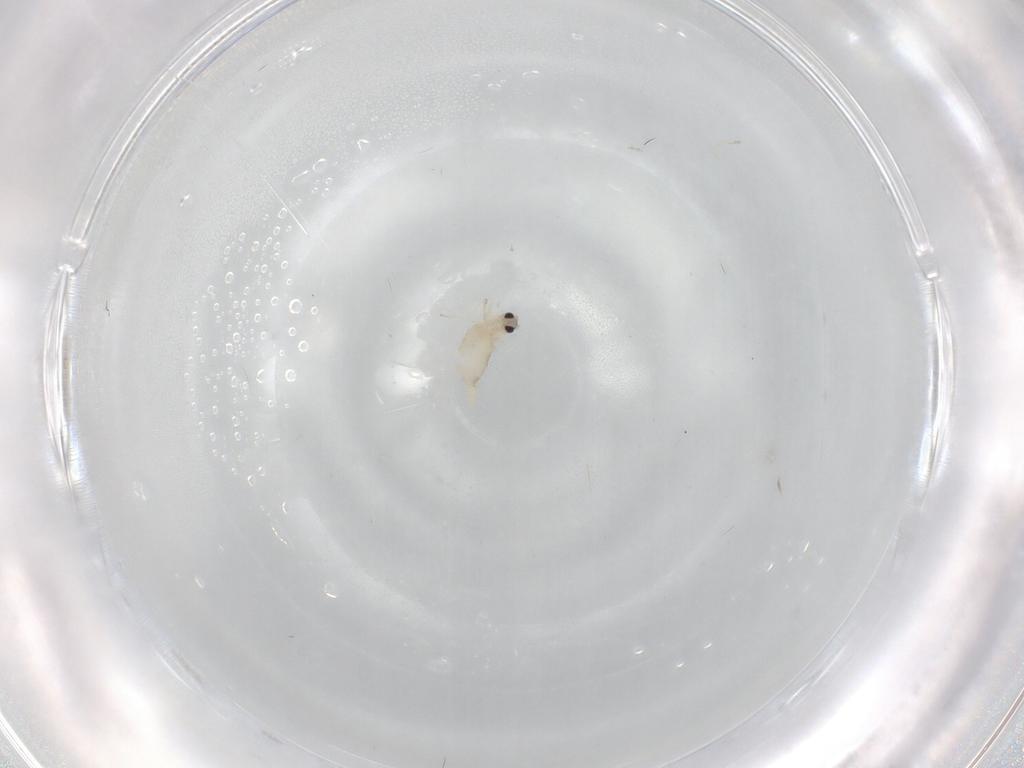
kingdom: Animalia
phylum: Arthropoda
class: Insecta
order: Diptera
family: Cecidomyiidae
